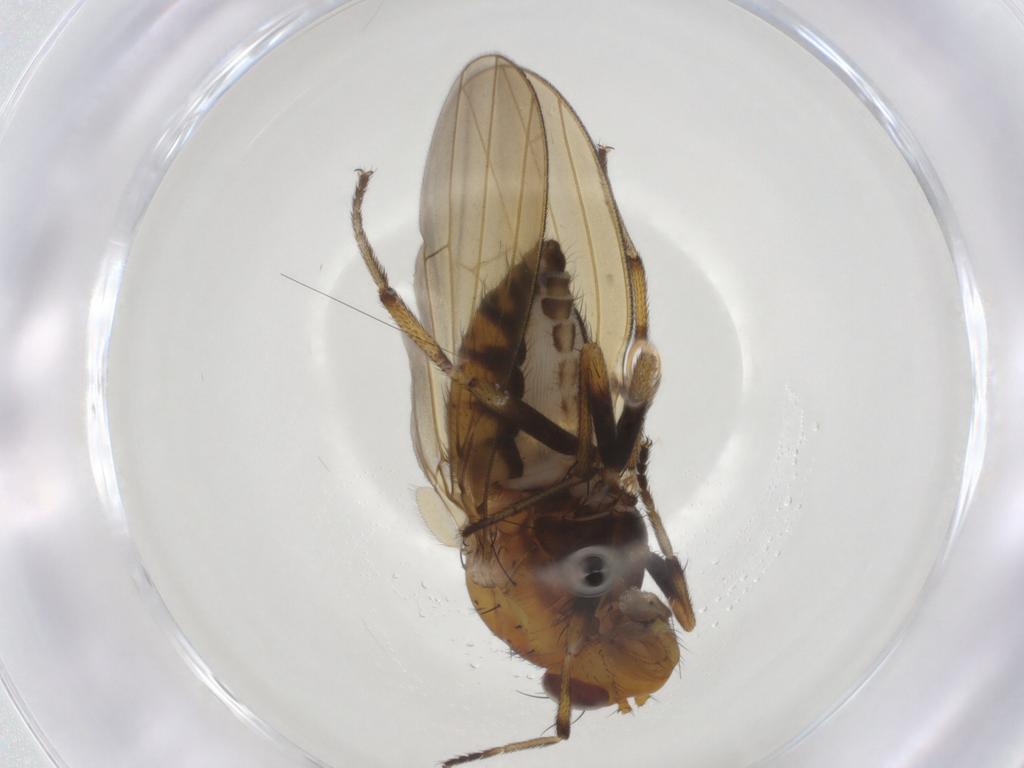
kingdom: Animalia
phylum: Arthropoda
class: Insecta
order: Diptera
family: Lauxaniidae
